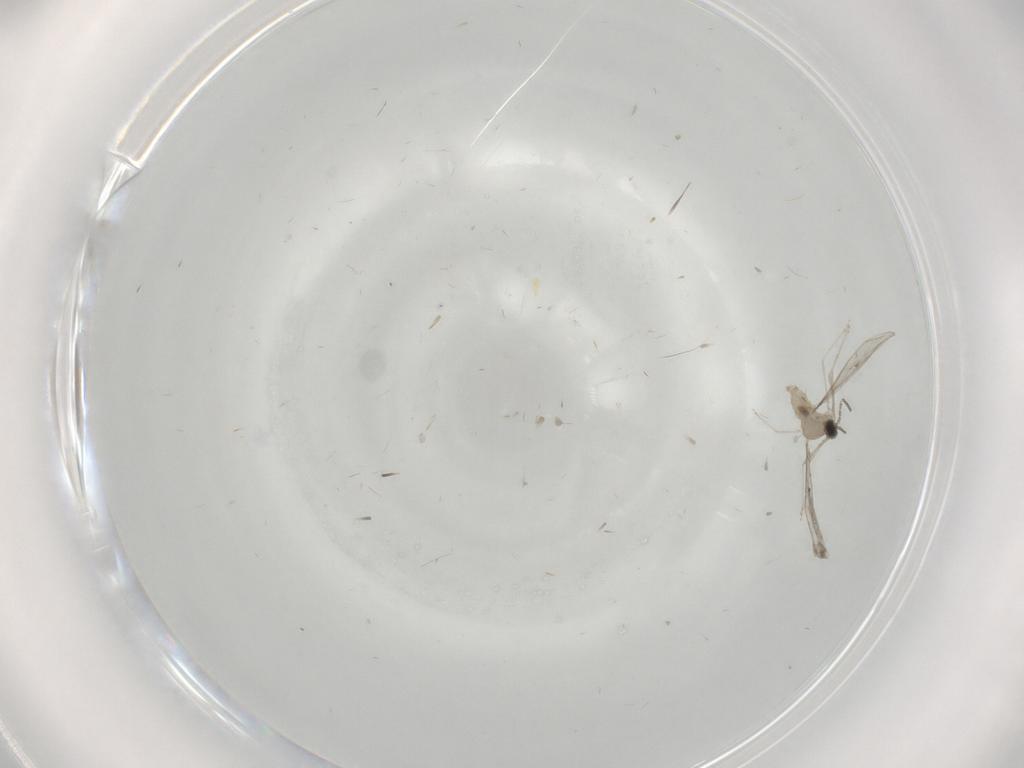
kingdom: Animalia
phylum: Arthropoda
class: Insecta
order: Diptera
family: Cecidomyiidae
